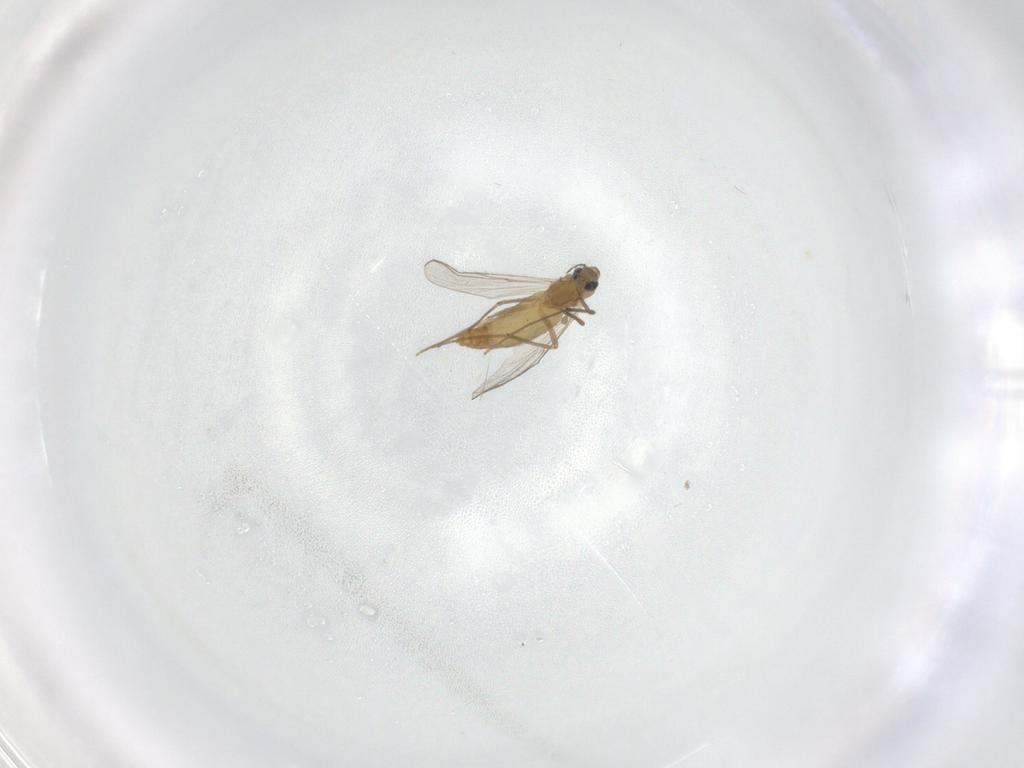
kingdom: Animalia
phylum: Arthropoda
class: Insecta
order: Diptera
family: Chironomidae
